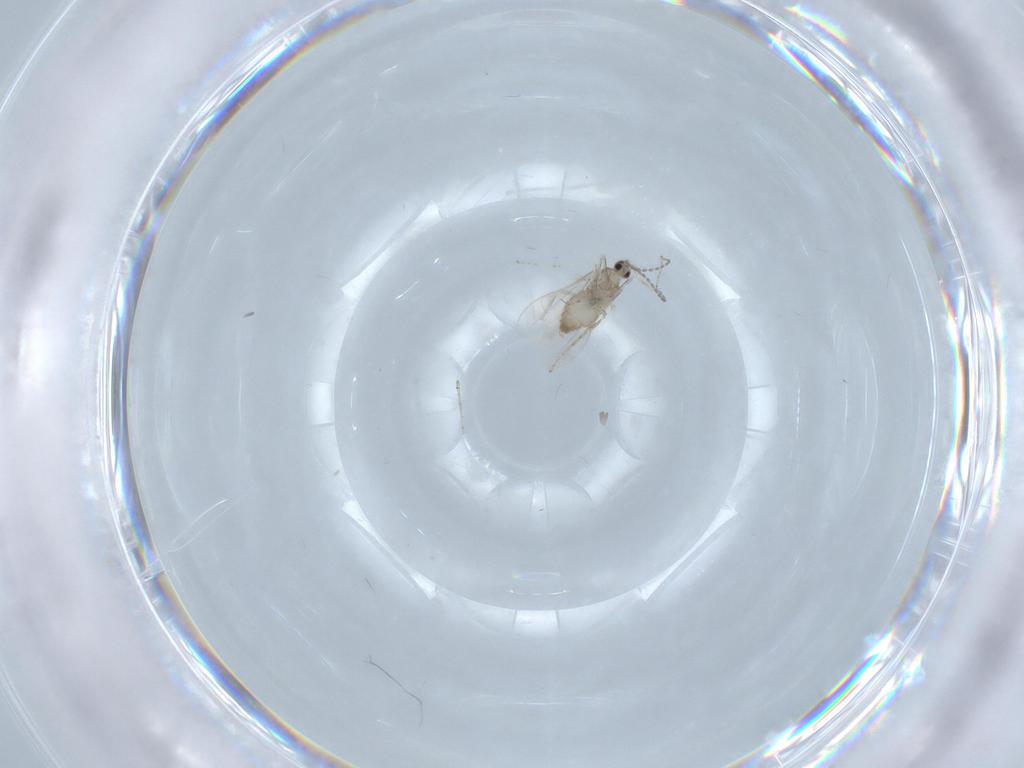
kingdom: Animalia
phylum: Arthropoda
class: Insecta
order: Diptera
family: Cecidomyiidae
